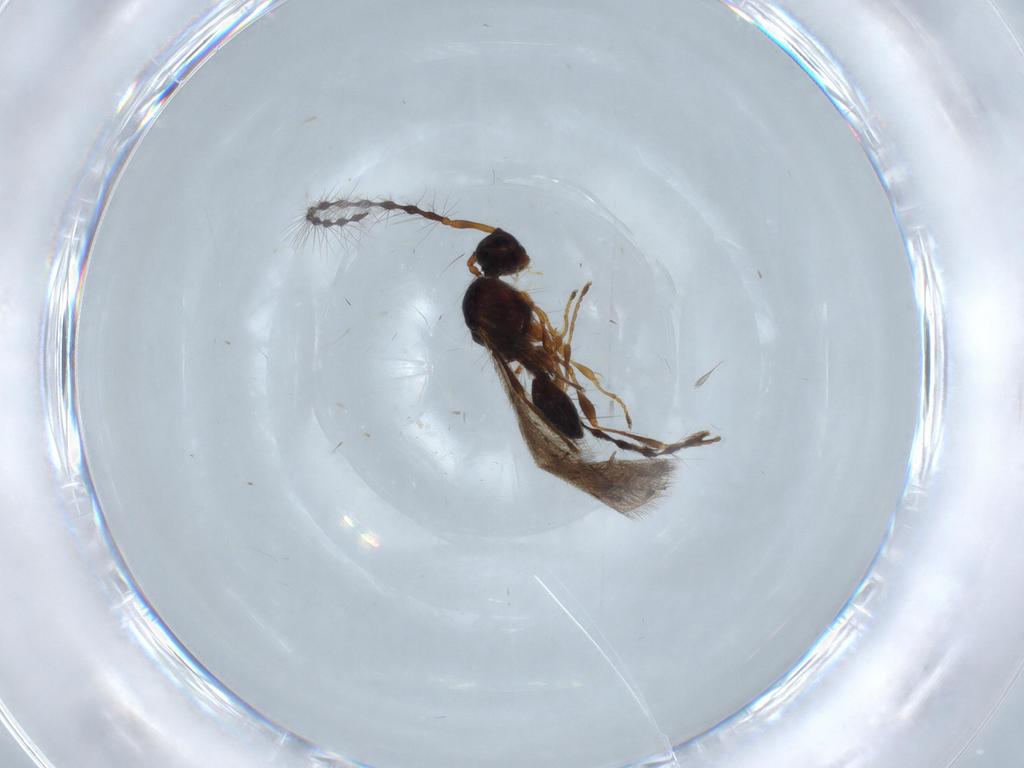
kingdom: Animalia
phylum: Arthropoda
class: Insecta
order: Hymenoptera
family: Diapriidae
